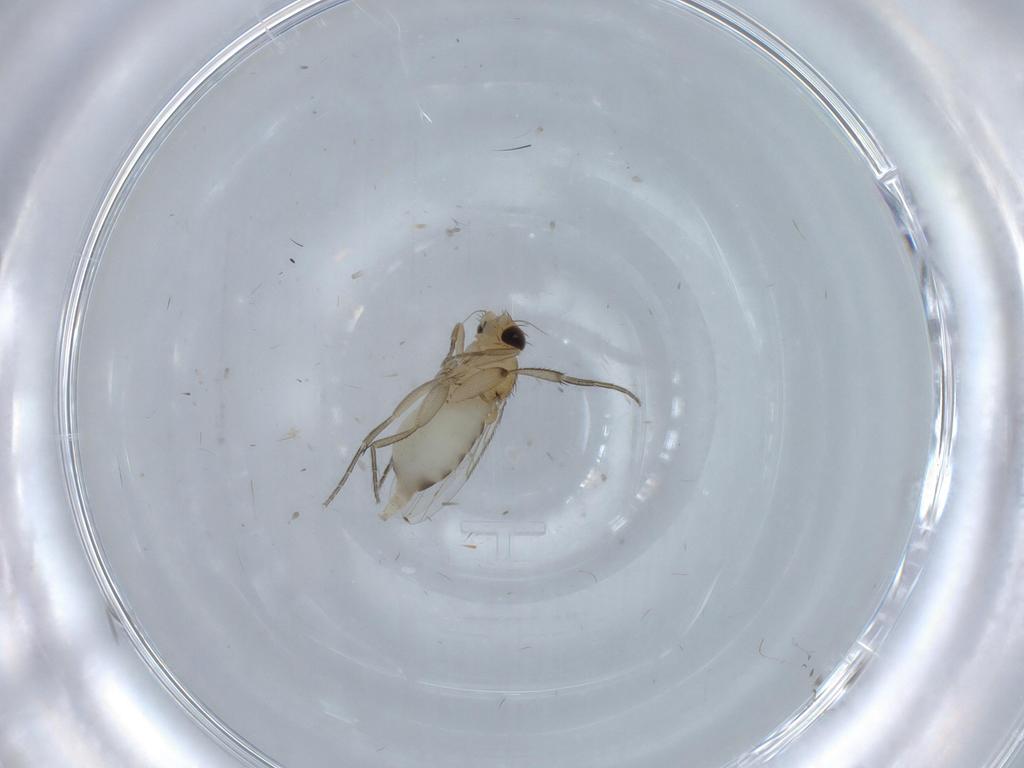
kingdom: Animalia
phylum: Arthropoda
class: Insecta
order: Diptera
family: Phoridae
